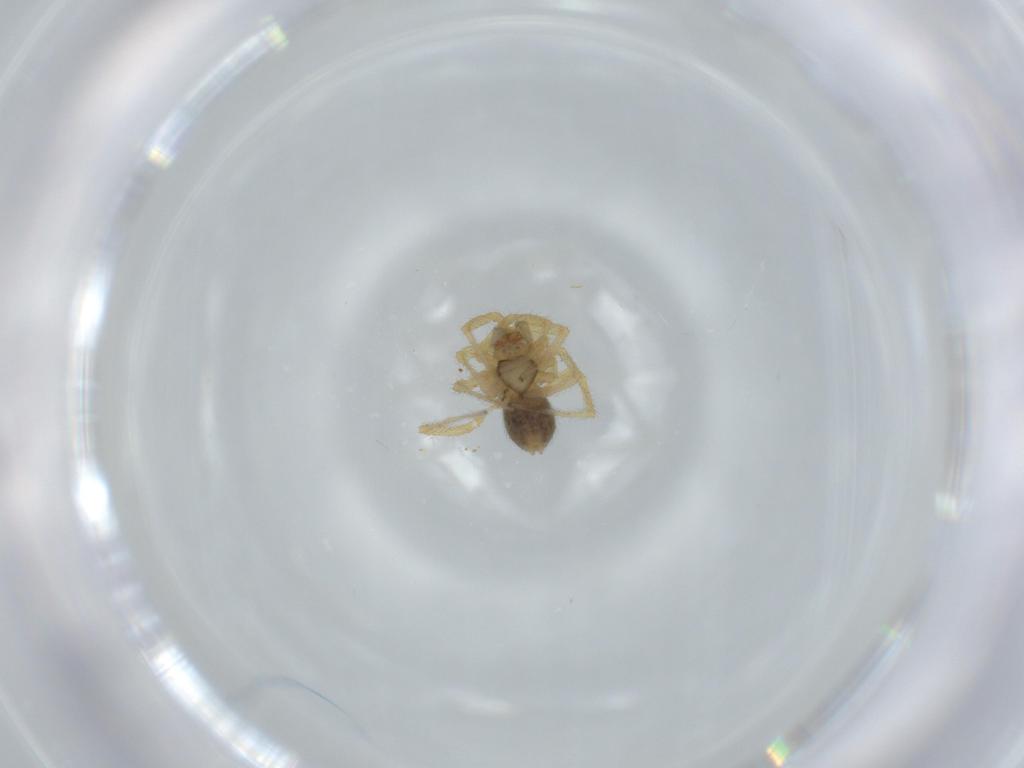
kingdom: Animalia
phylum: Arthropoda
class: Arachnida
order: Araneae
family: Linyphiidae
